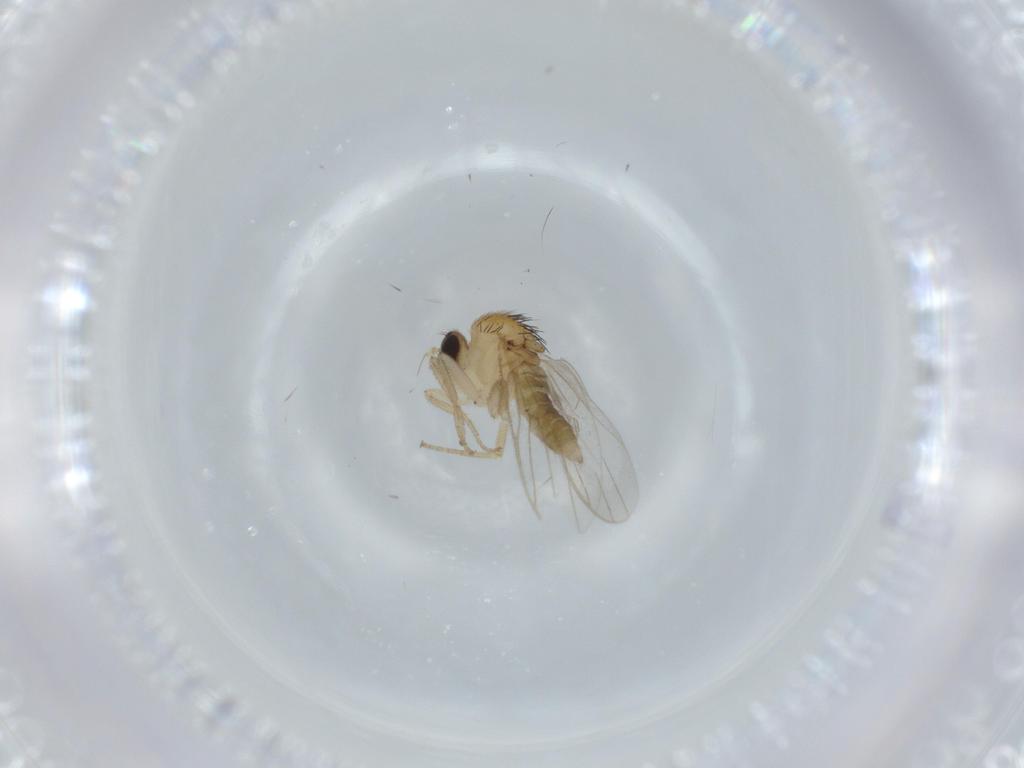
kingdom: Animalia
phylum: Arthropoda
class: Insecta
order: Diptera
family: Hybotidae
